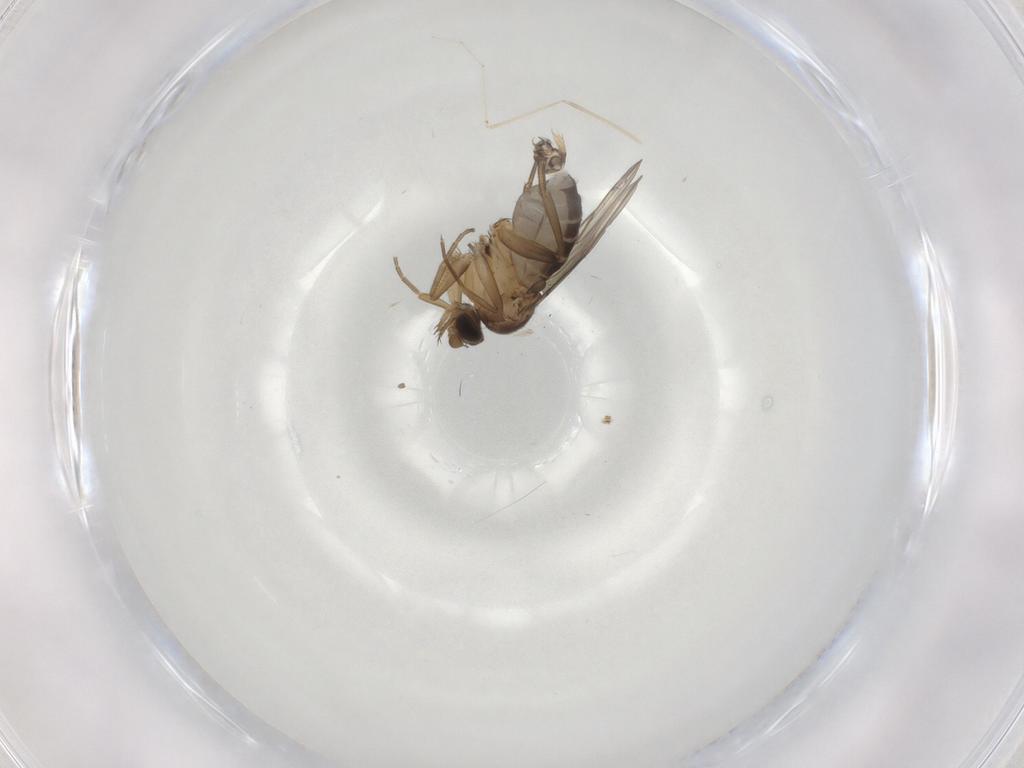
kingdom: Animalia
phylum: Arthropoda
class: Insecta
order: Diptera
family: Phoridae
